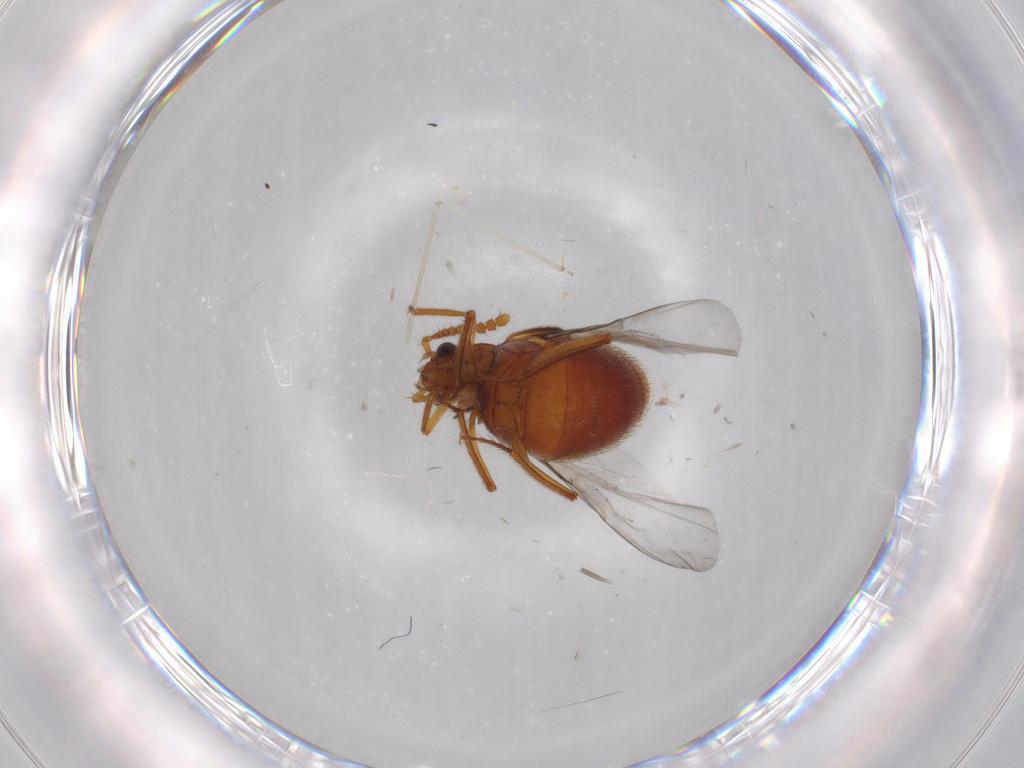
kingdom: Animalia
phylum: Arthropoda
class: Insecta
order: Coleoptera
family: Staphylinidae
